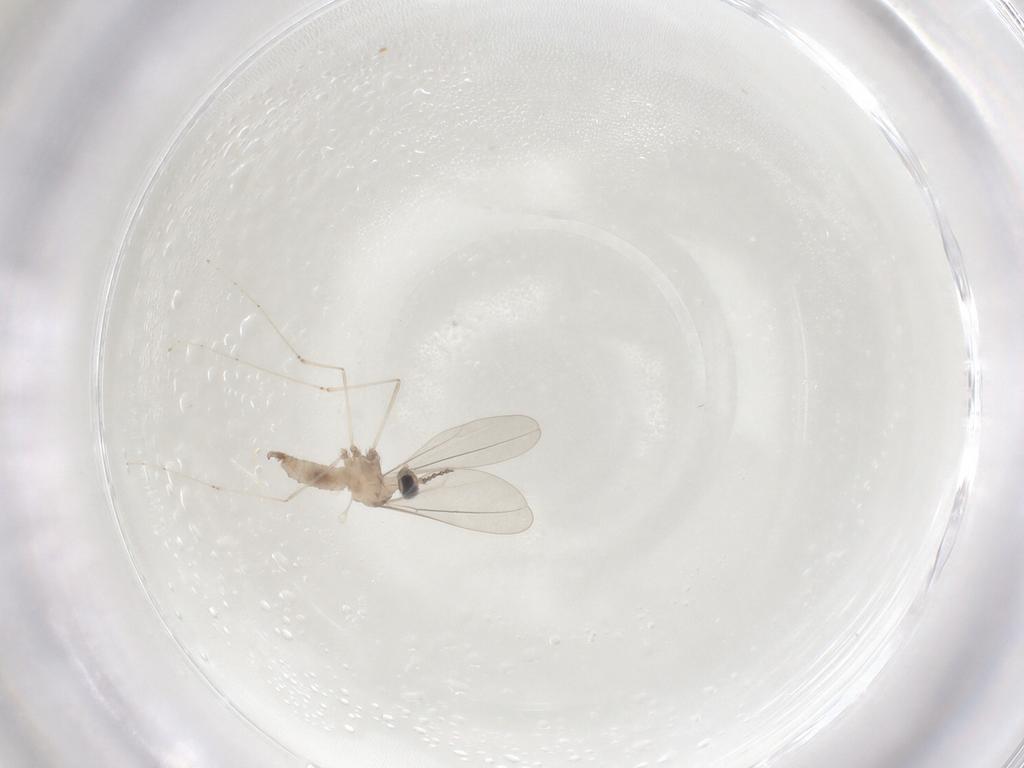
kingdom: Animalia
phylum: Arthropoda
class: Insecta
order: Diptera
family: Cecidomyiidae
